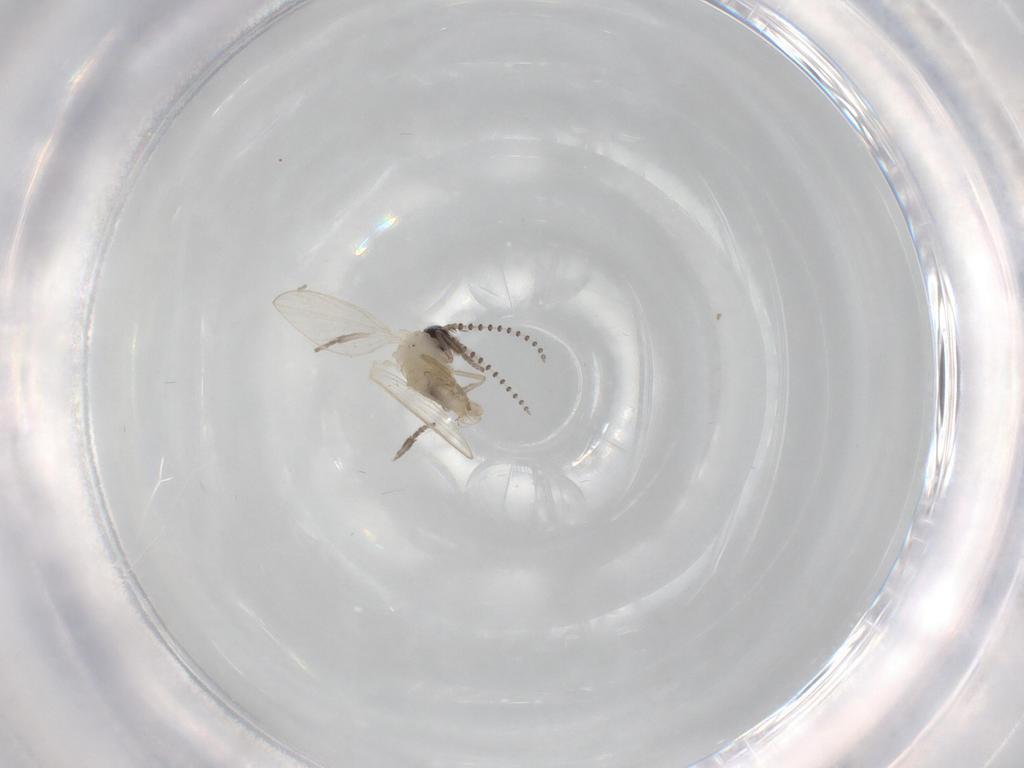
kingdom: Animalia
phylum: Arthropoda
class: Insecta
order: Diptera
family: Psychodidae
